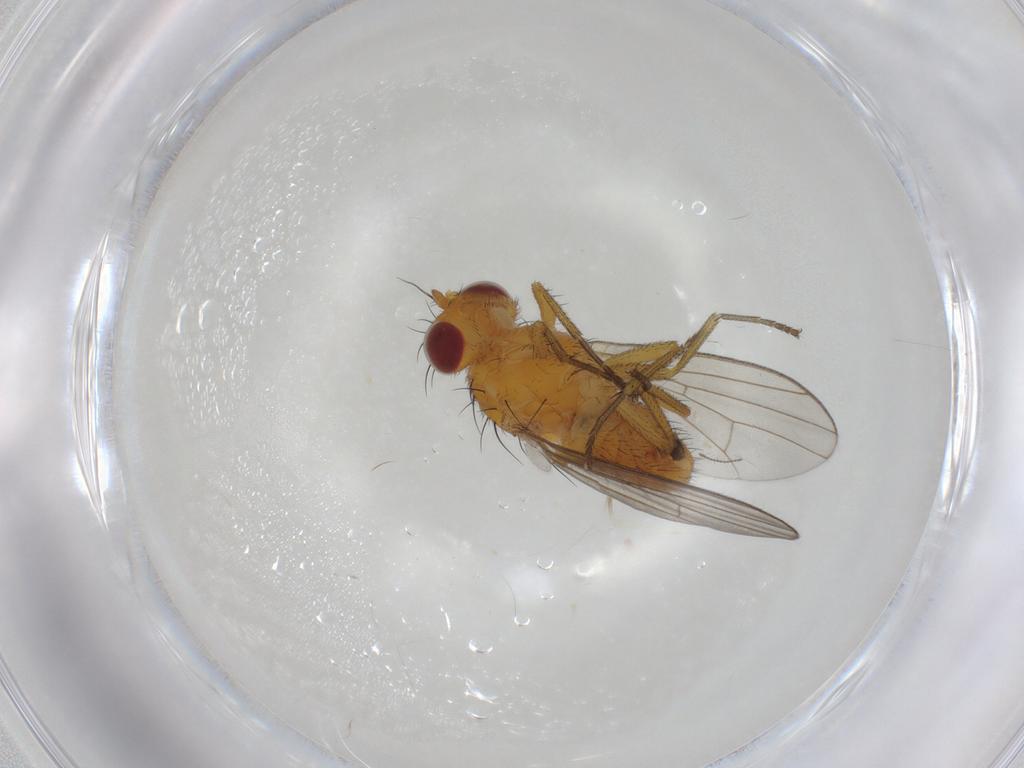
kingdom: Animalia
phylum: Arthropoda
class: Insecta
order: Diptera
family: Lauxaniidae
